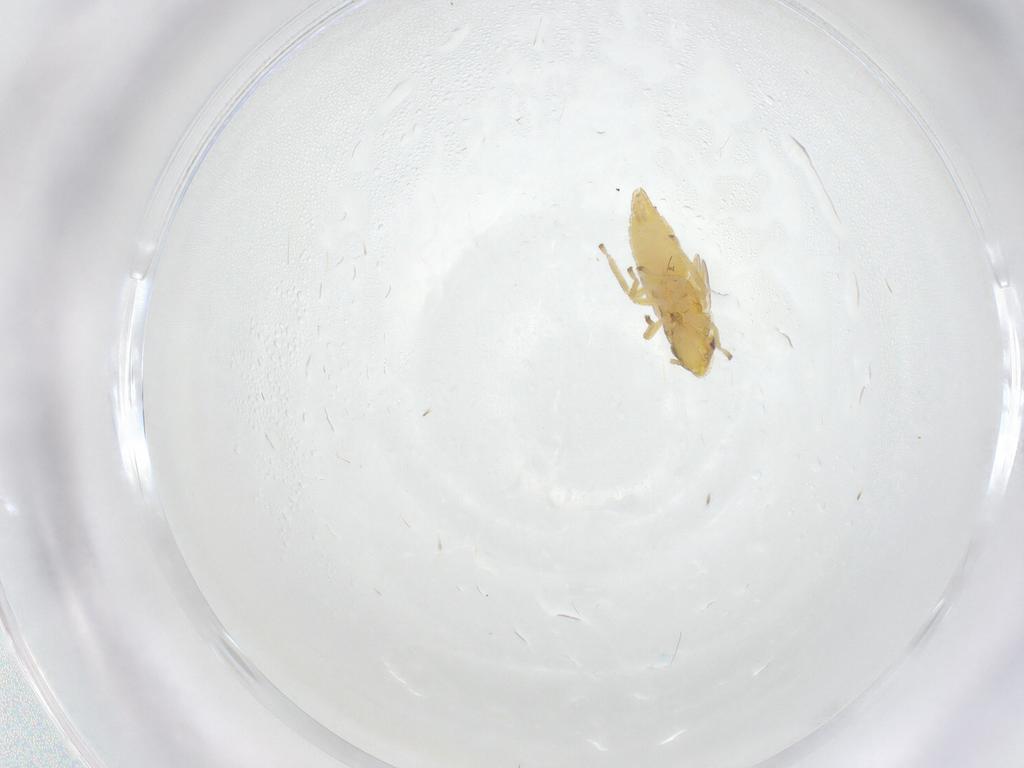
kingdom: Animalia
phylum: Arthropoda
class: Insecta
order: Hemiptera
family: Cicadellidae
